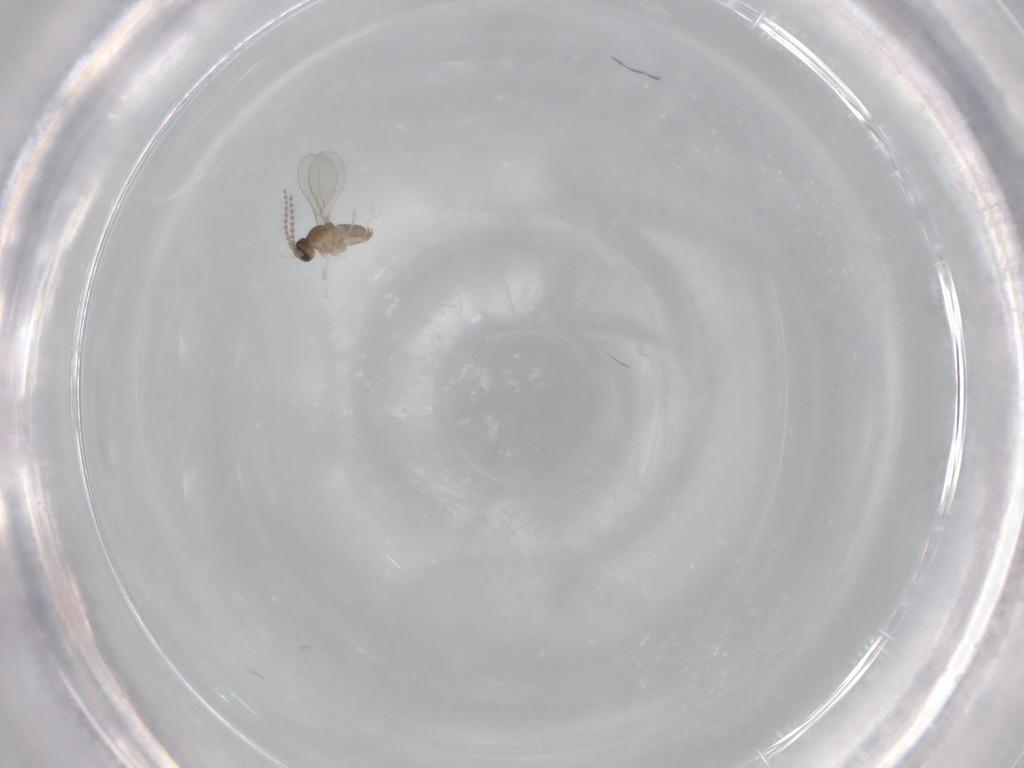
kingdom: Animalia
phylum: Arthropoda
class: Insecta
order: Diptera
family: Cecidomyiidae
